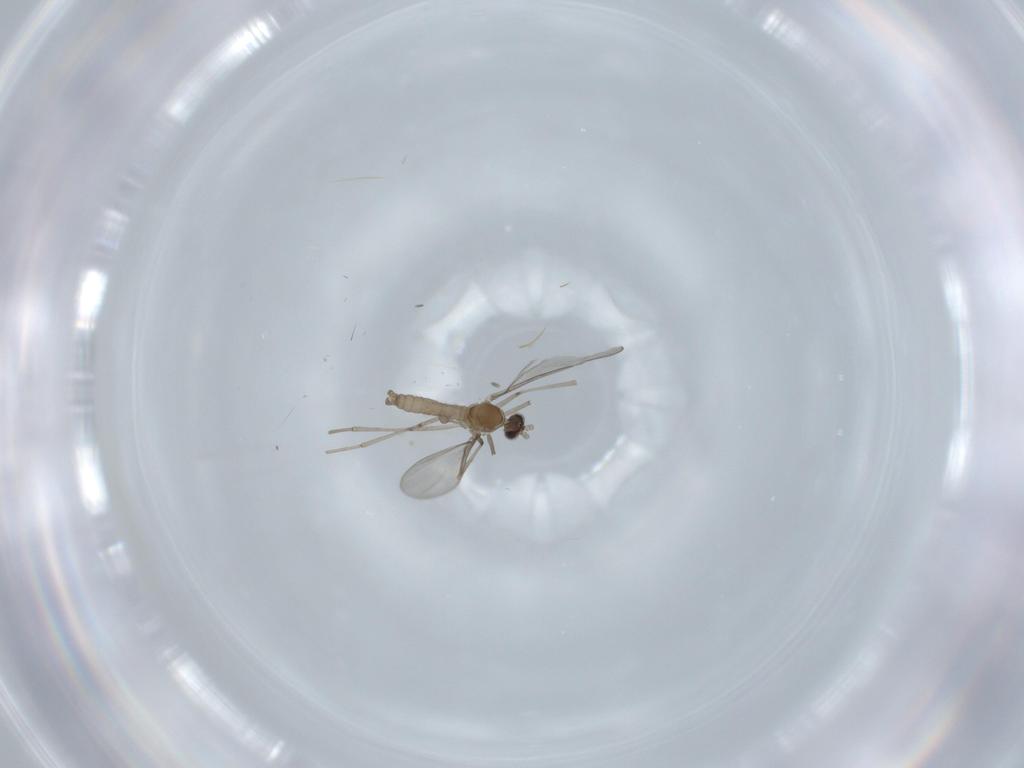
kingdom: Animalia
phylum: Arthropoda
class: Insecta
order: Diptera
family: Cecidomyiidae
